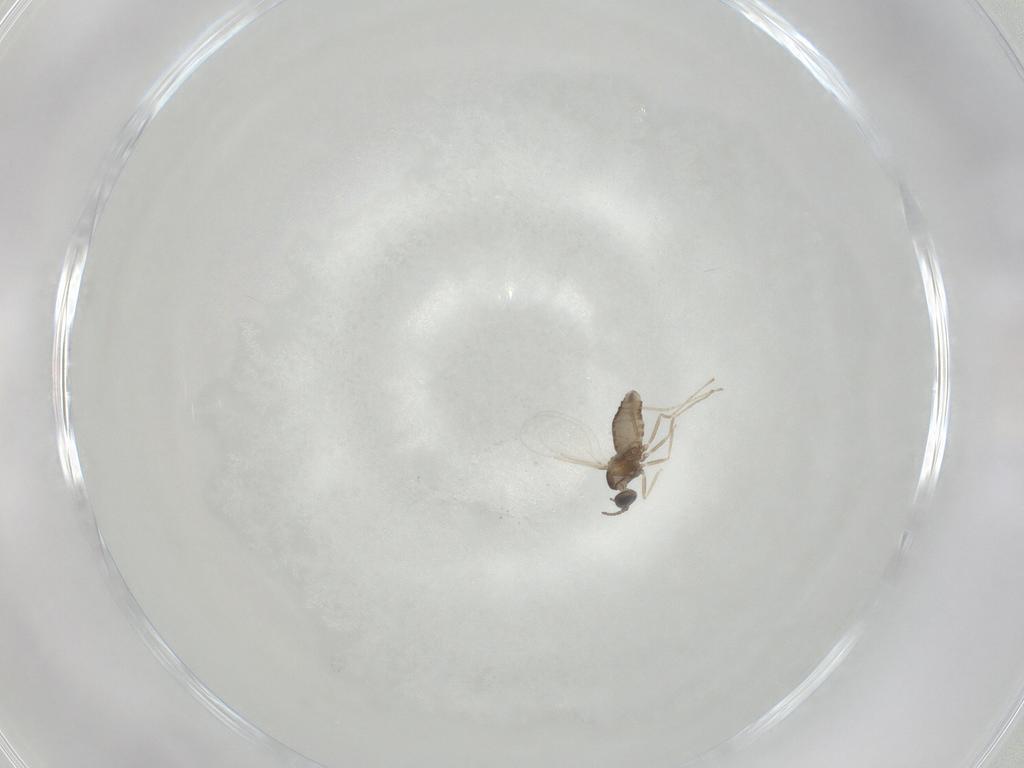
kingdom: Animalia
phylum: Arthropoda
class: Insecta
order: Diptera
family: Cecidomyiidae
